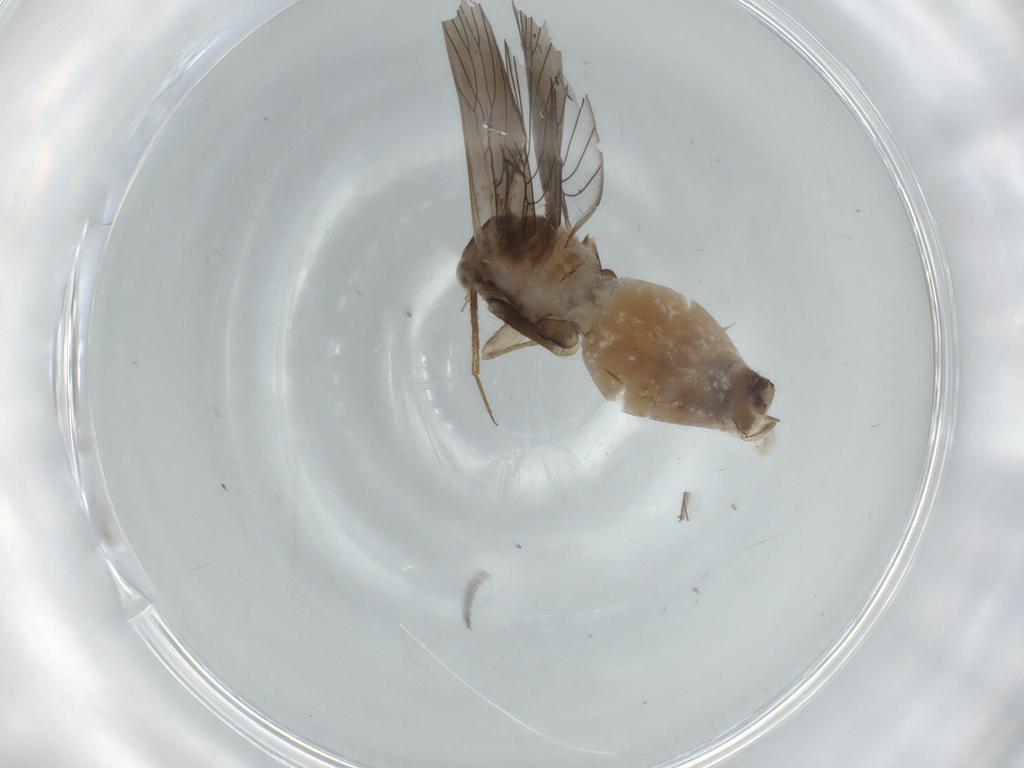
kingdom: Animalia
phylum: Arthropoda
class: Insecta
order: Psocodea
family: Lepidopsocidae
